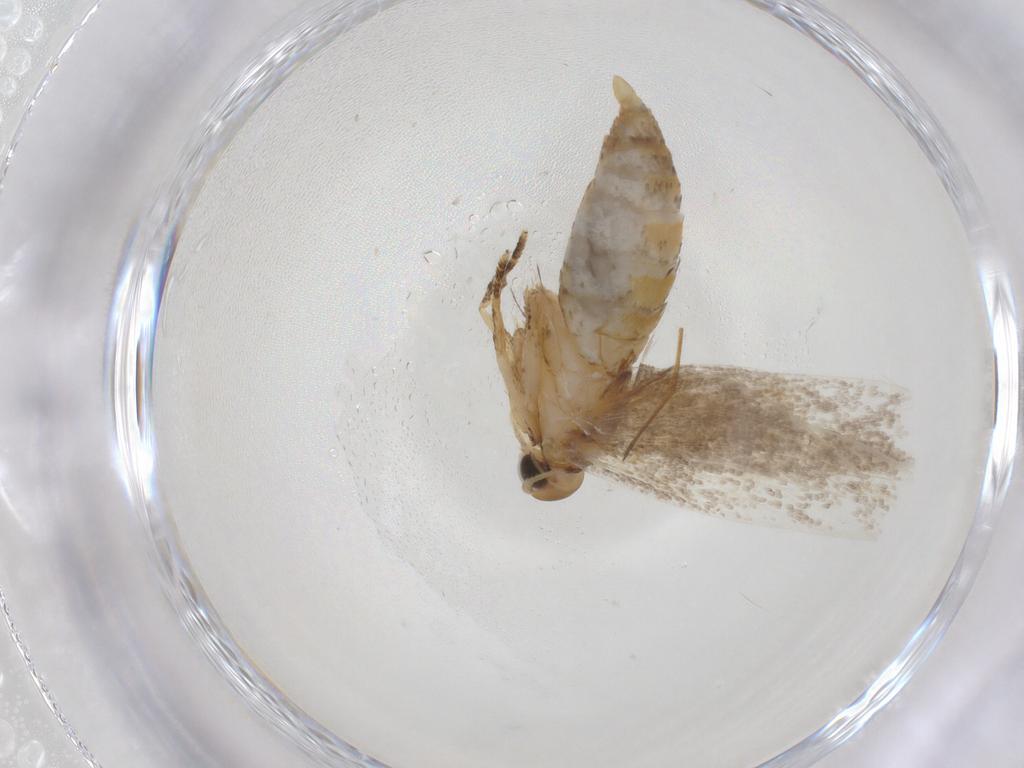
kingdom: Animalia
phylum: Arthropoda
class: Insecta
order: Lepidoptera
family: Oecophoridae
